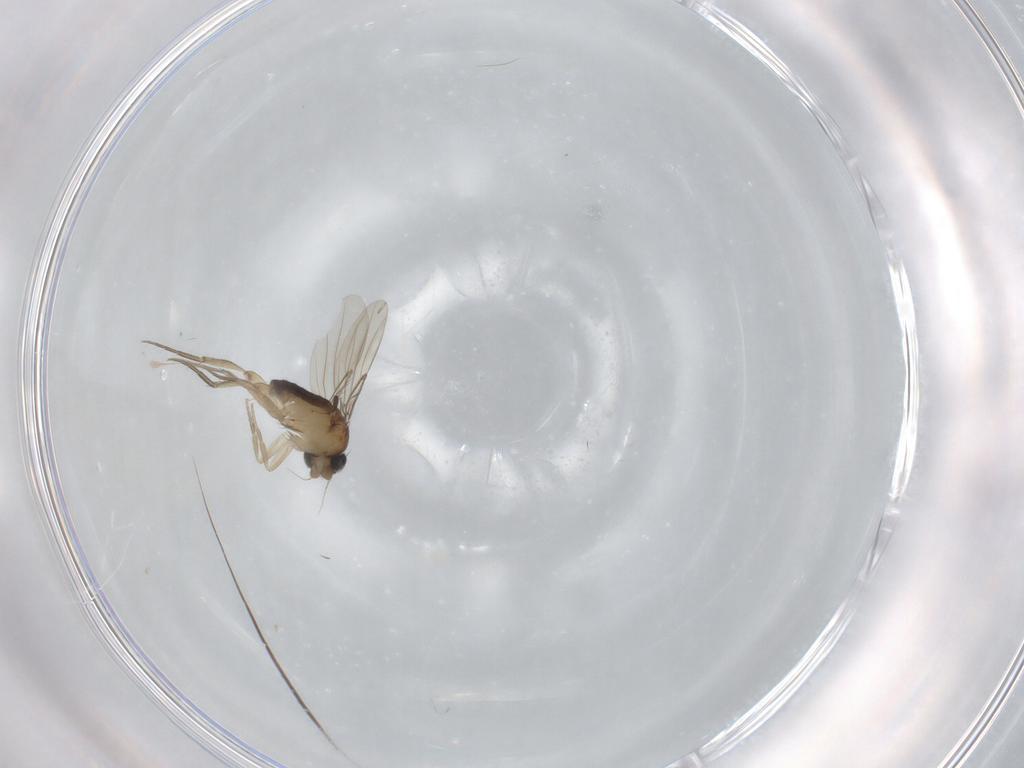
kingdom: Animalia
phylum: Arthropoda
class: Insecta
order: Diptera
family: Phoridae
